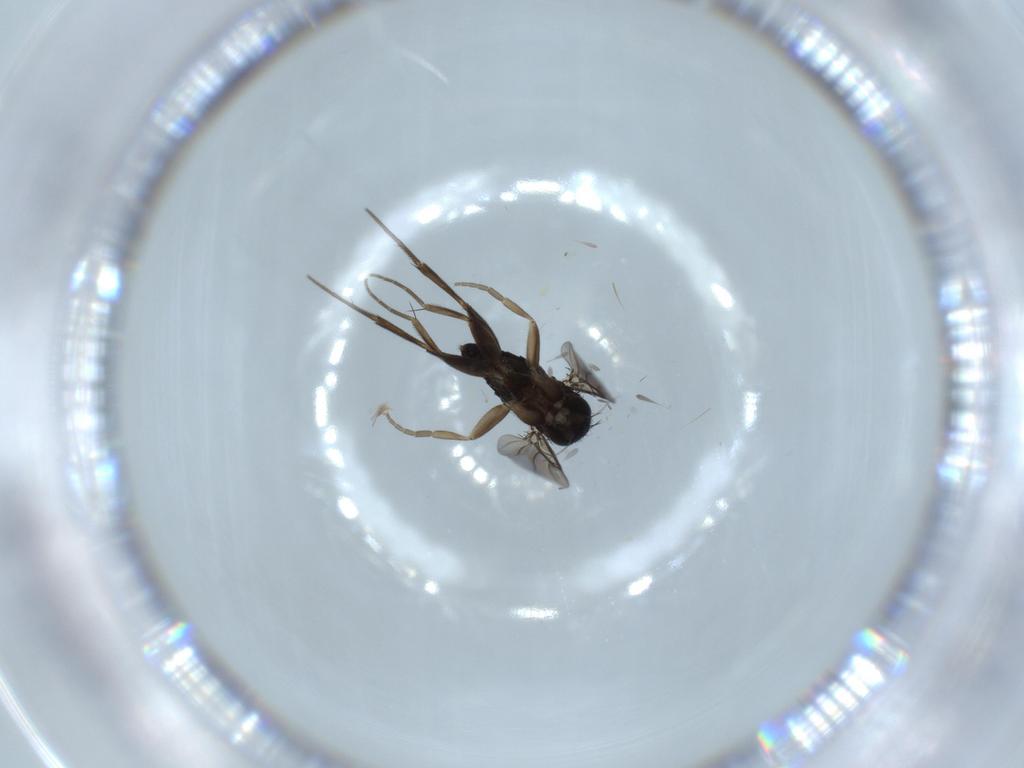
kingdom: Animalia
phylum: Arthropoda
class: Insecta
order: Diptera
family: Phoridae
